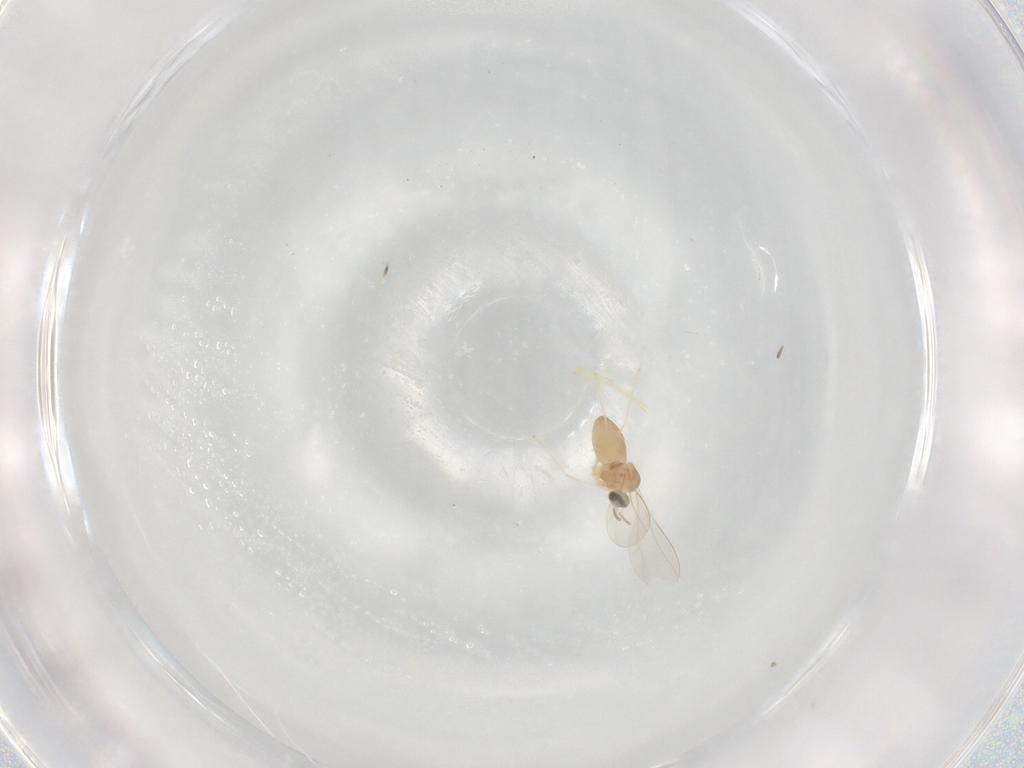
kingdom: Animalia
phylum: Arthropoda
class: Insecta
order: Diptera
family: Cecidomyiidae
